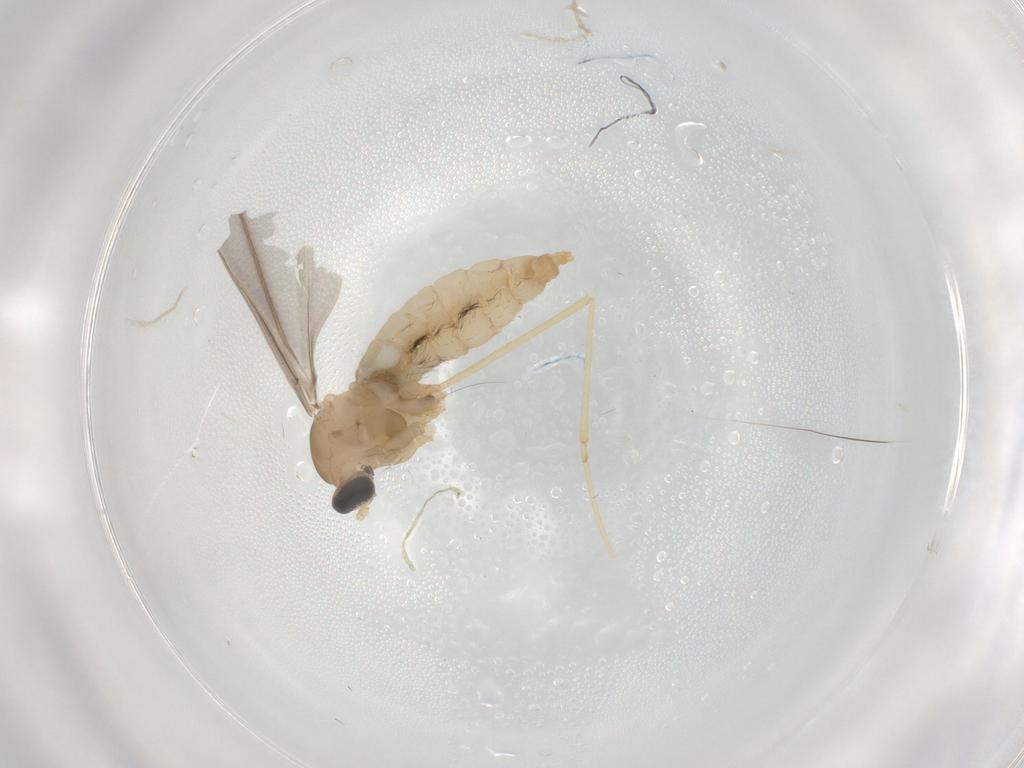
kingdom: Animalia
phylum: Arthropoda
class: Insecta
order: Diptera
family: Cecidomyiidae
